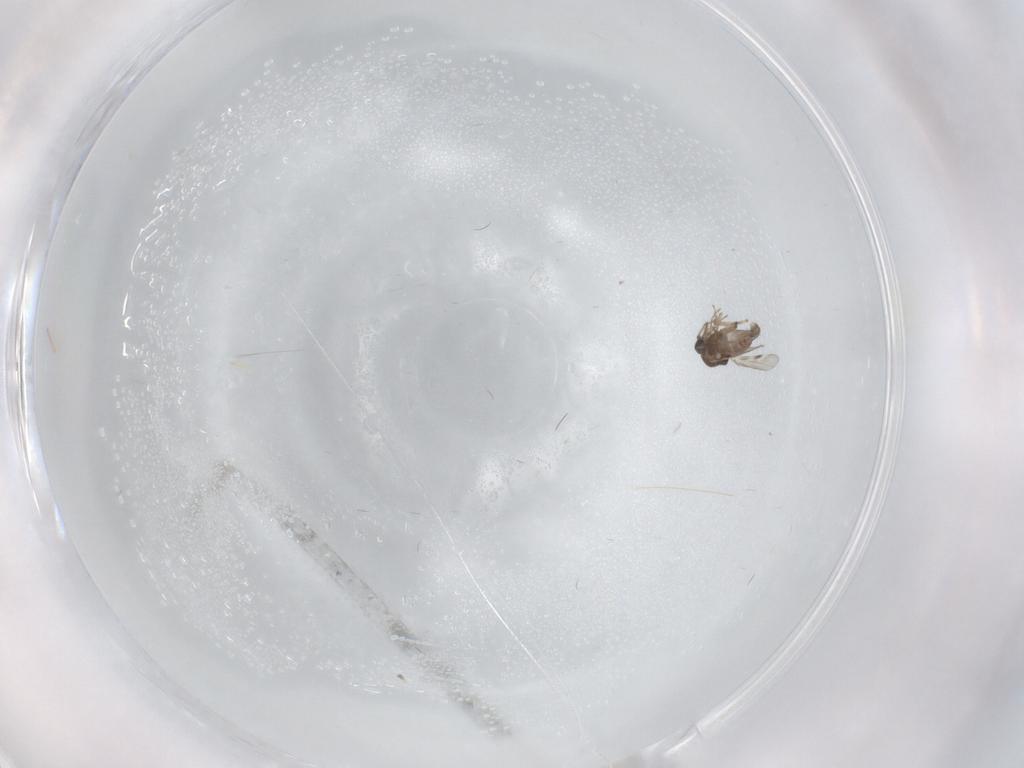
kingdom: Animalia
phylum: Arthropoda
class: Insecta
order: Diptera
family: Cecidomyiidae
